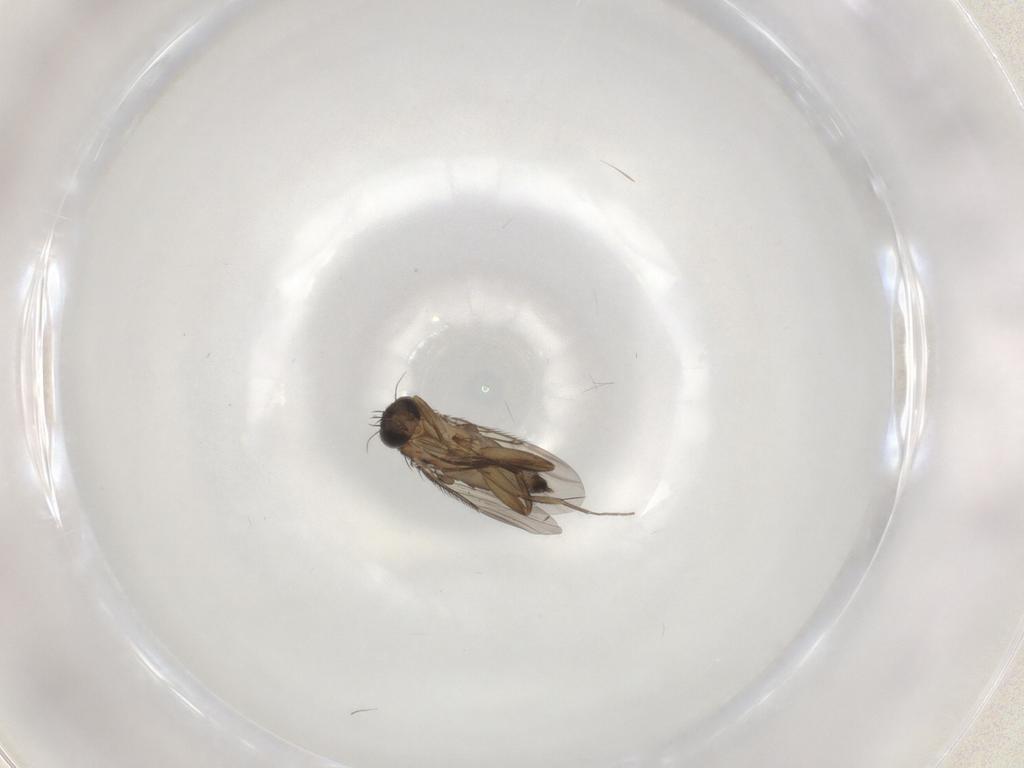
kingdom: Animalia
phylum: Arthropoda
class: Insecta
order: Diptera
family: Phoridae
